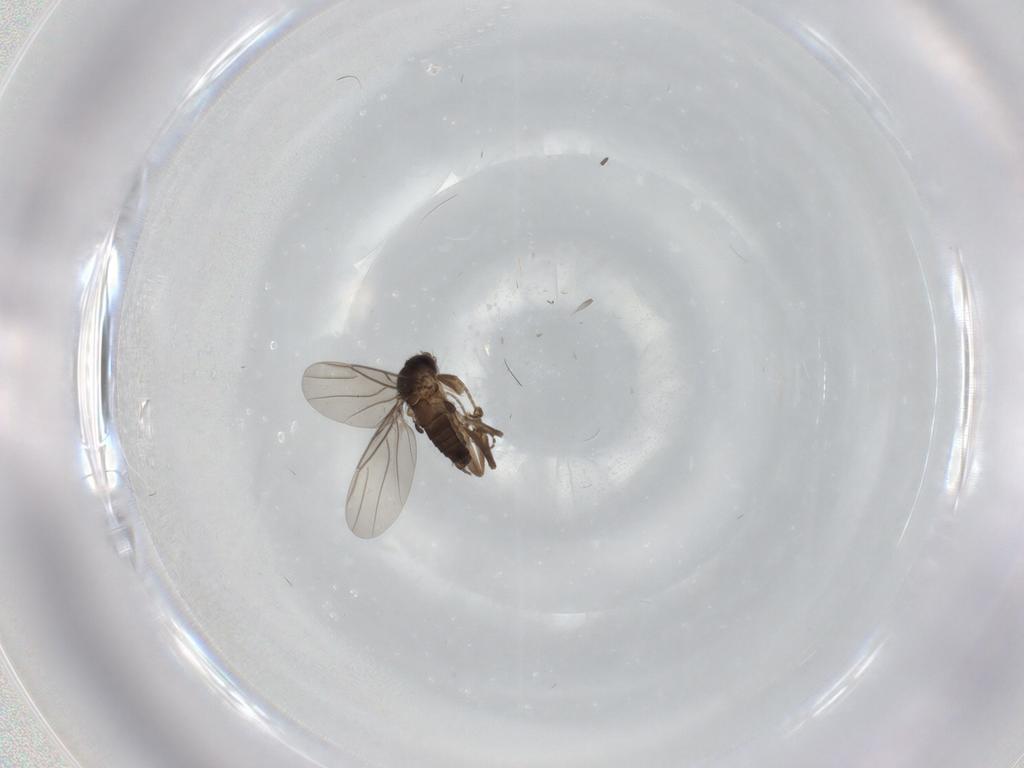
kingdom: Animalia
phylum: Arthropoda
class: Insecta
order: Diptera
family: Phoridae
